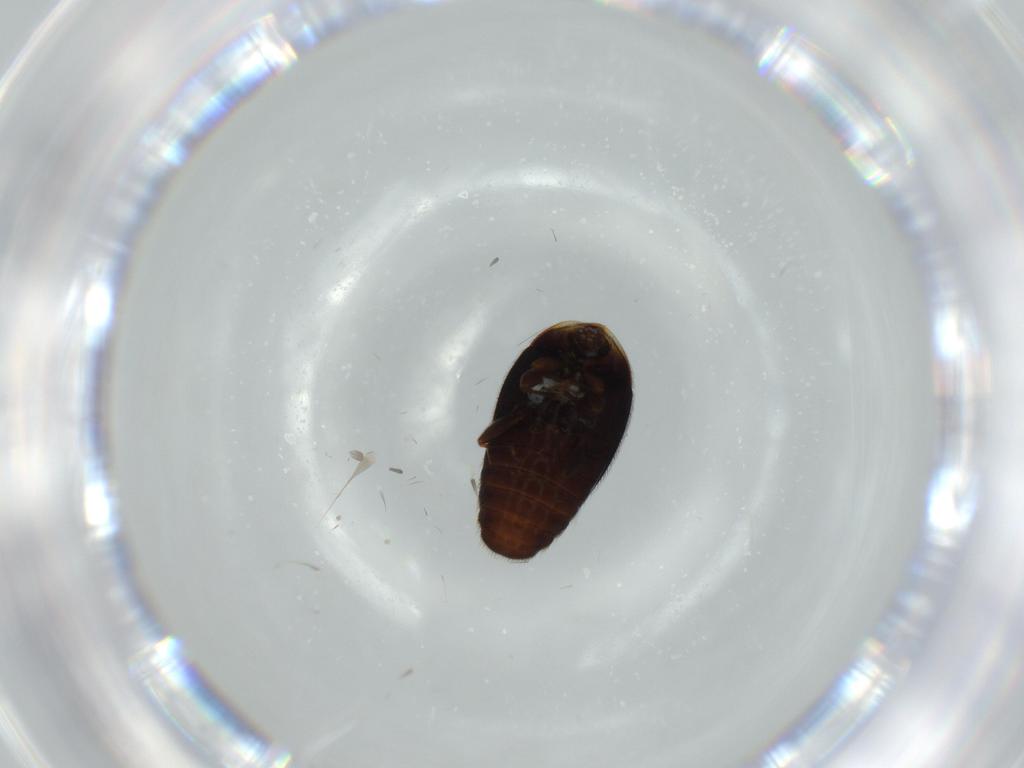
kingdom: Animalia
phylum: Arthropoda
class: Insecta
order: Coleoptera
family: Corylophidae
